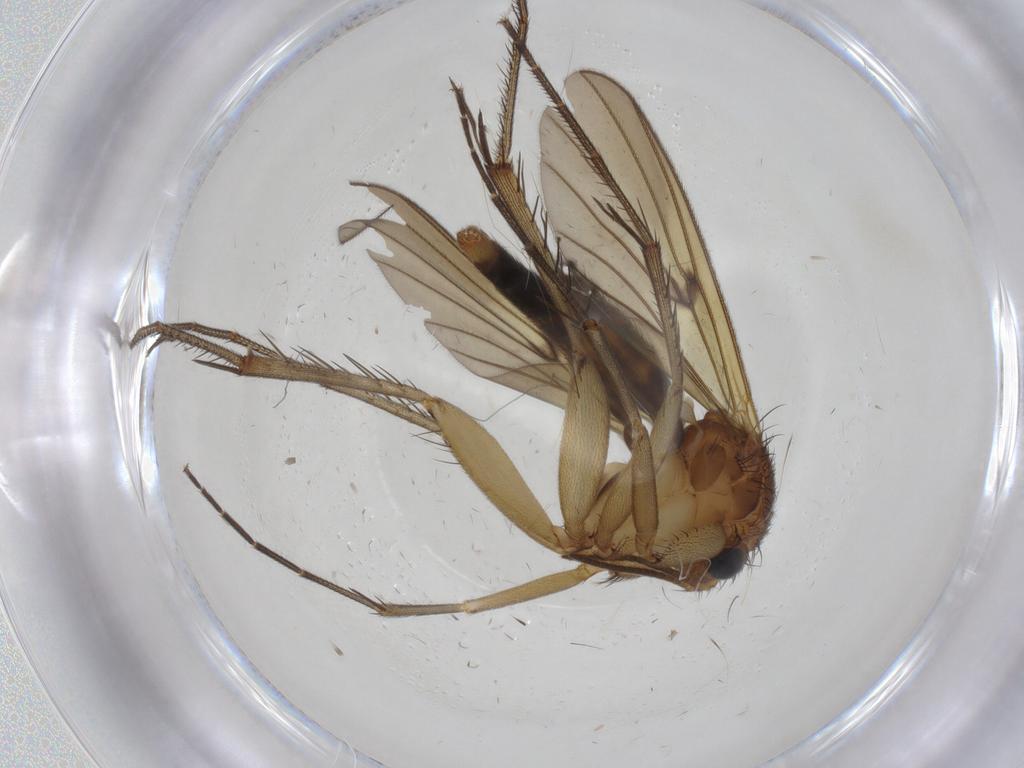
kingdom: Animalia
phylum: Arthropoda
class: Insecta
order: Diptera
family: Mycetophilidae
